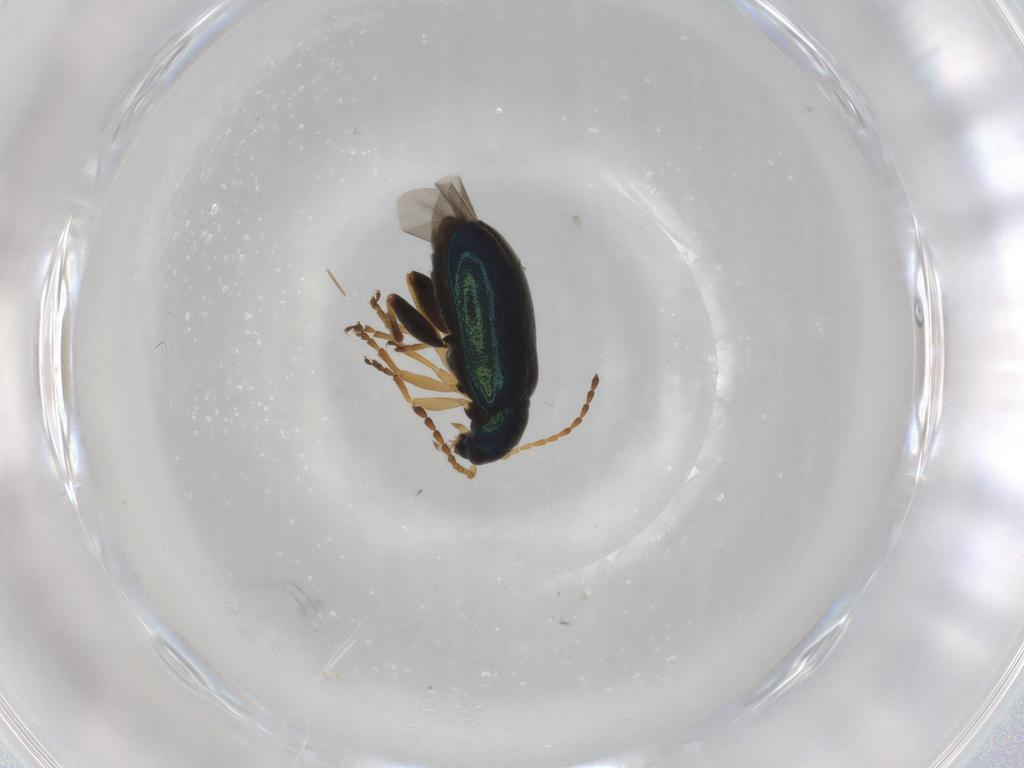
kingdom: Animalia
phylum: Arthropoda
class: Insecta
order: Coleoptera
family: Chrysomelidae
